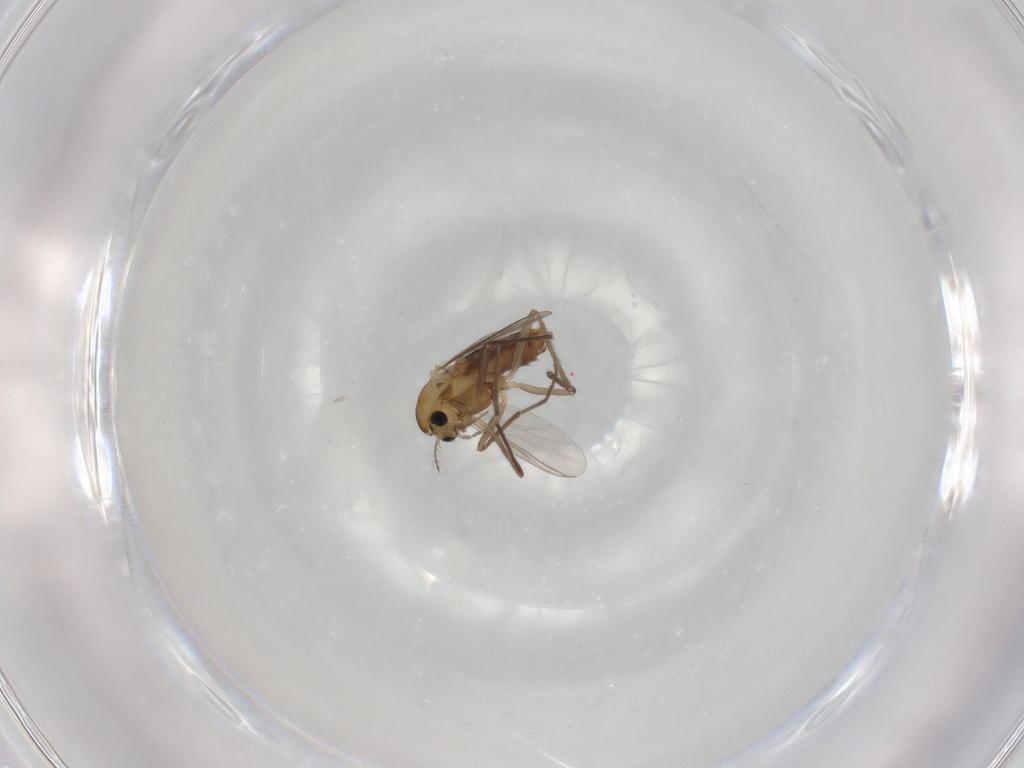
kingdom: Animalia
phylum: Arthropoda
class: Insecta
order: Diptera
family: Chironomidae
